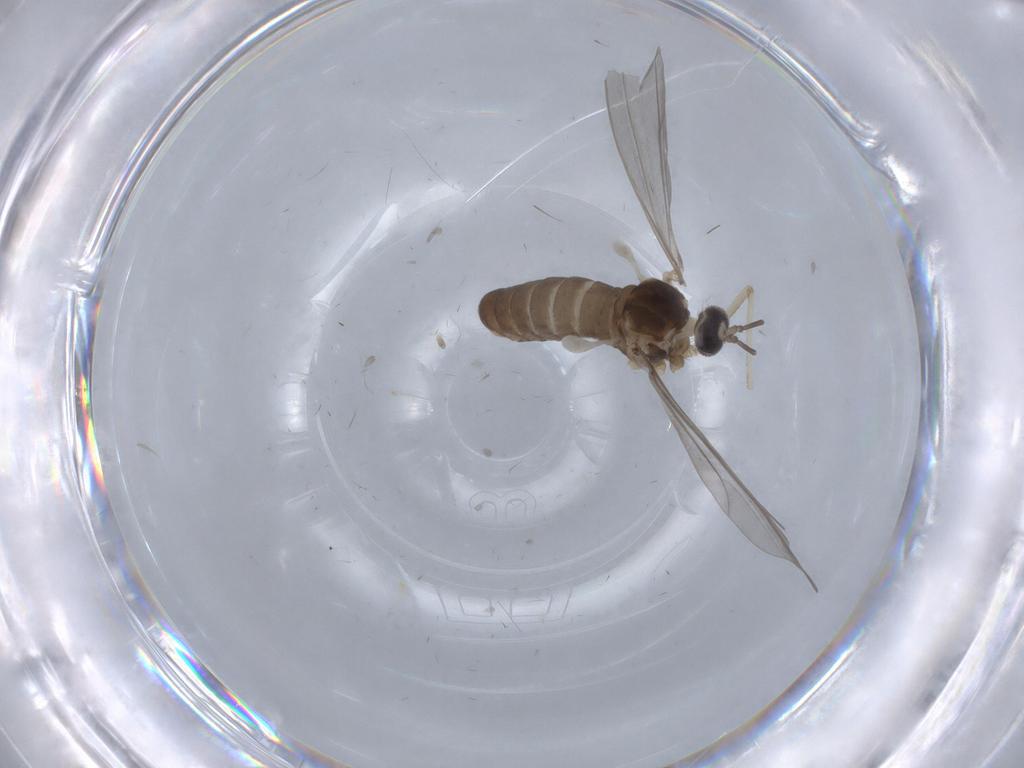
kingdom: Animalia
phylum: Arthropoda
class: Insecta
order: Diptera
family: Cecidomyiidae
